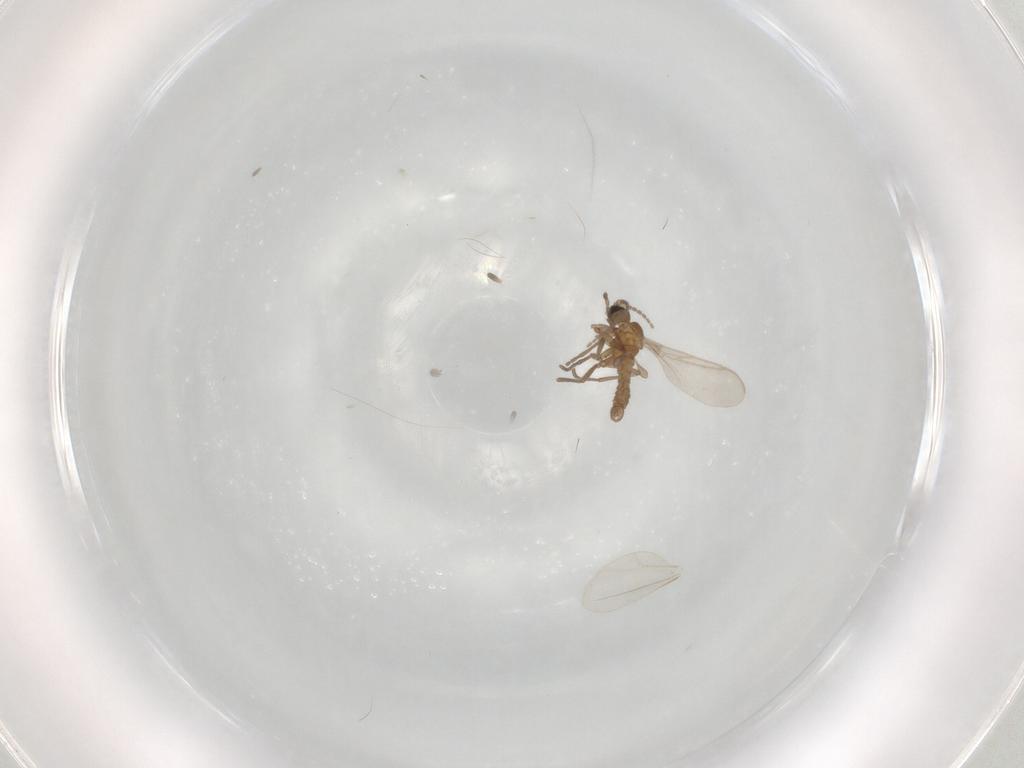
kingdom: Animalia
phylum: Arthropoda
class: Insecta
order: Diptera
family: Sciaridae
